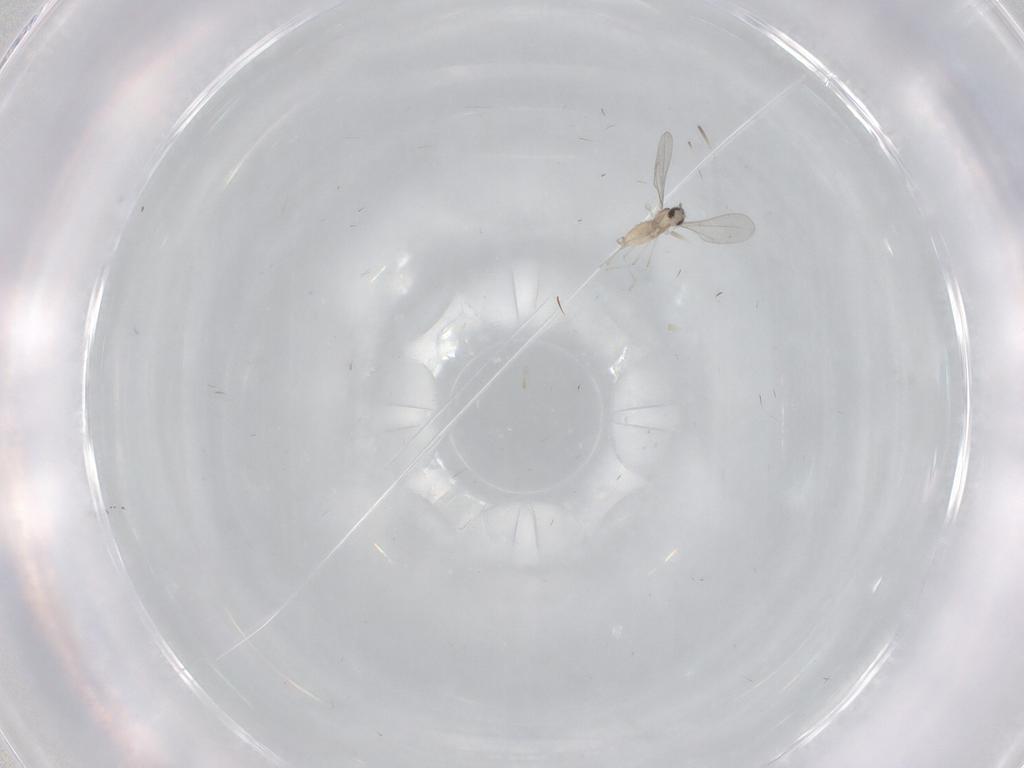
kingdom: Animalia
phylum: Arthropoda
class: Insecta
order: Diptera
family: Cecidomyiidae
